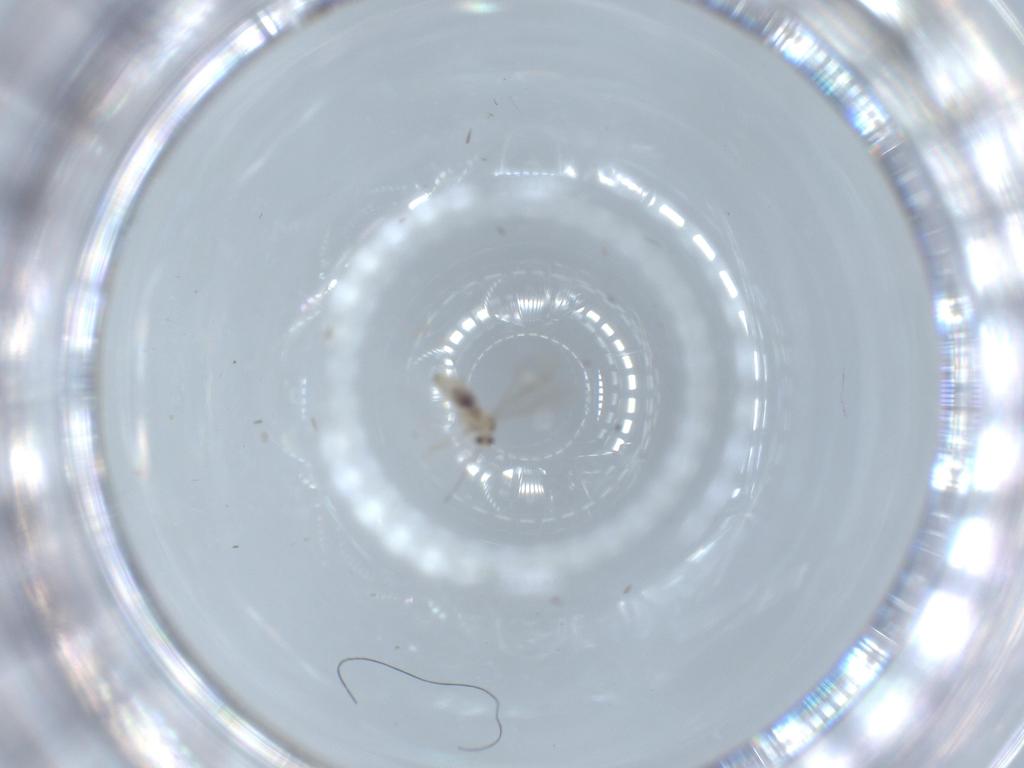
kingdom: Animalia
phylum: Arthropoda
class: Insecta
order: Diptera
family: Cecidomyiidae
